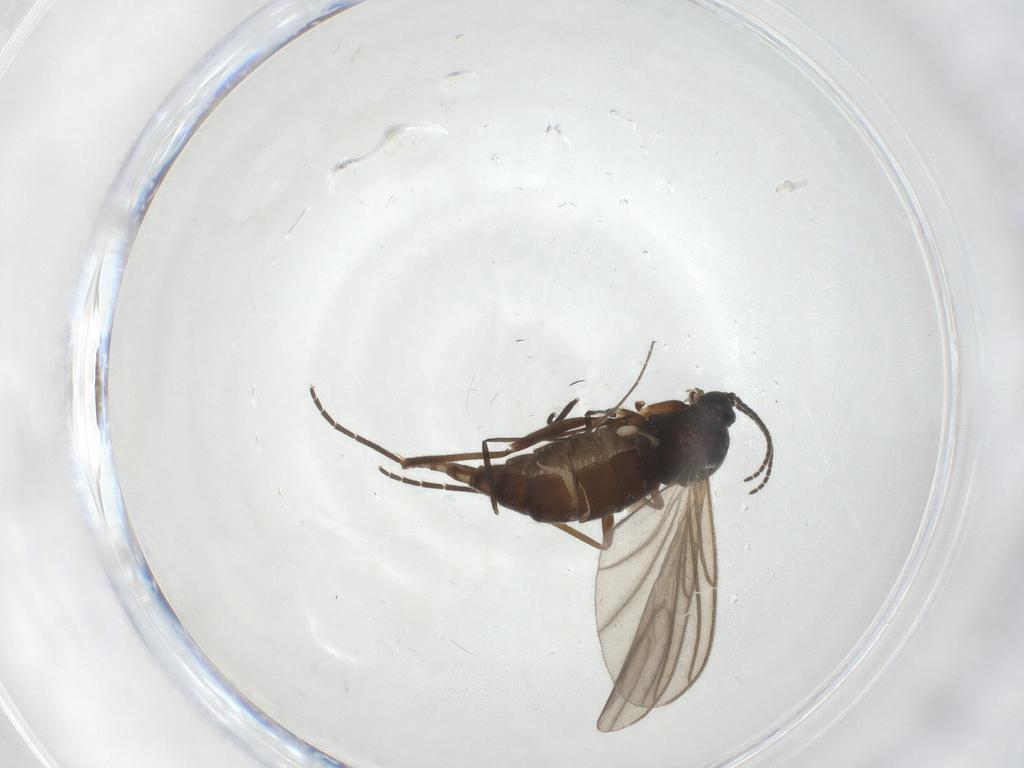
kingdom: Animalia
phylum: Arthropoda
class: Insecta
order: Diptera
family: Sciaridae
